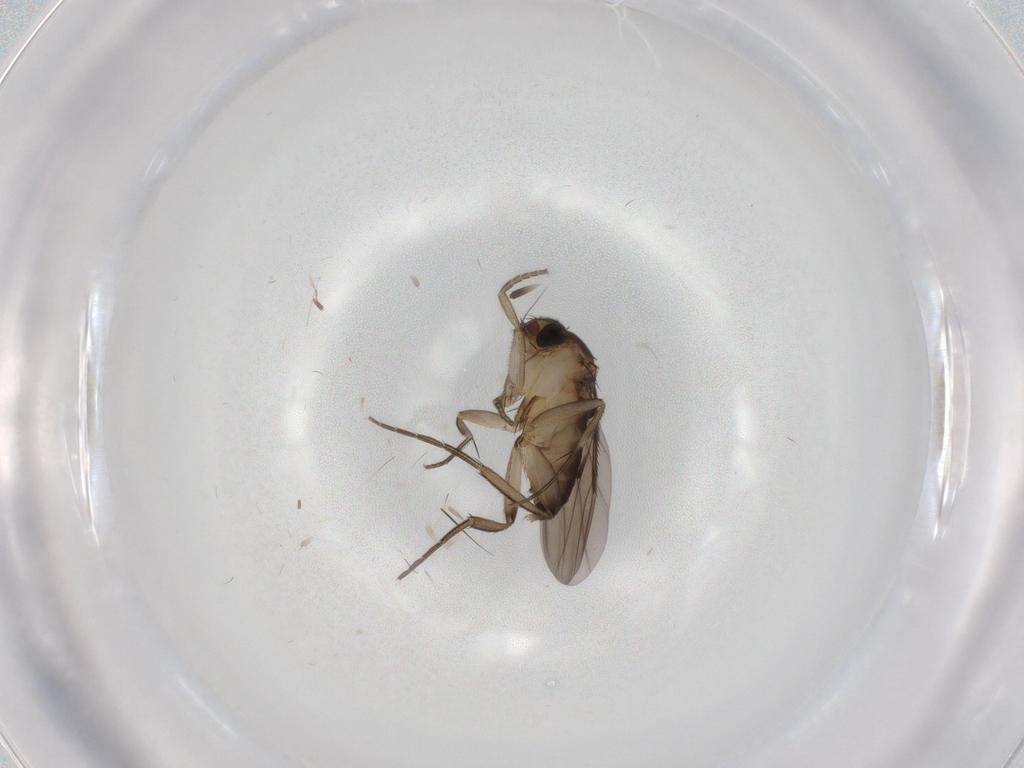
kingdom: Animalia
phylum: Arthropoda
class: Insecta
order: Diptera
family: Phoridae
